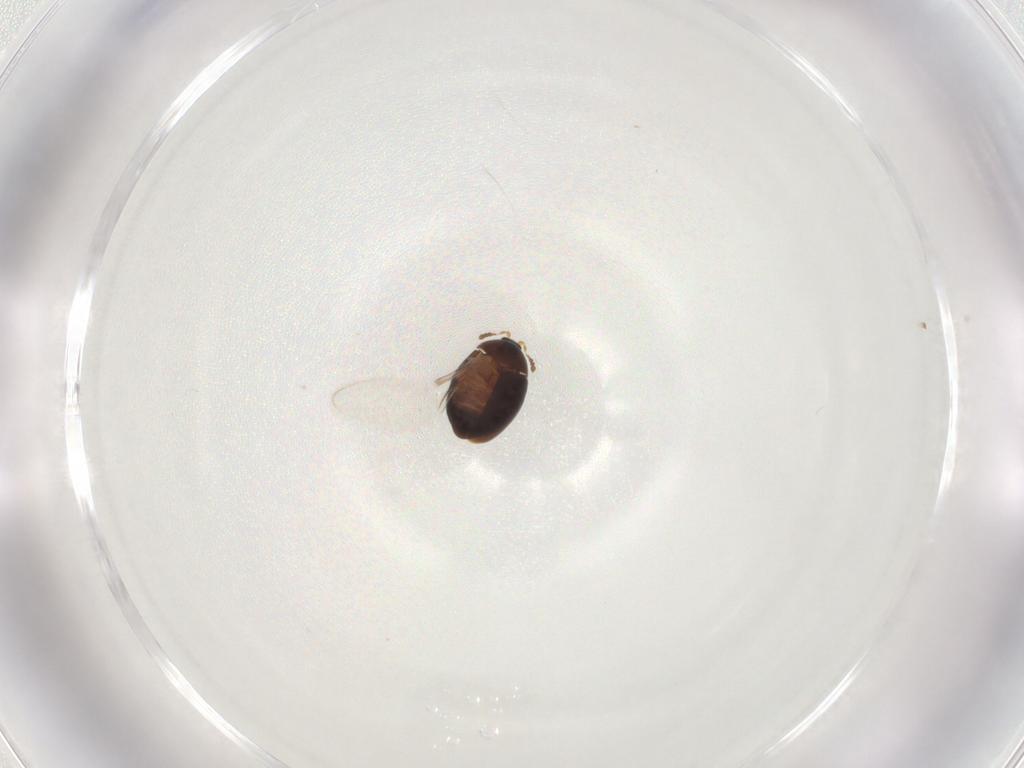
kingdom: Animalia
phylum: Arthropoda
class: Insecta
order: Coleoptera
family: Corylophidae
